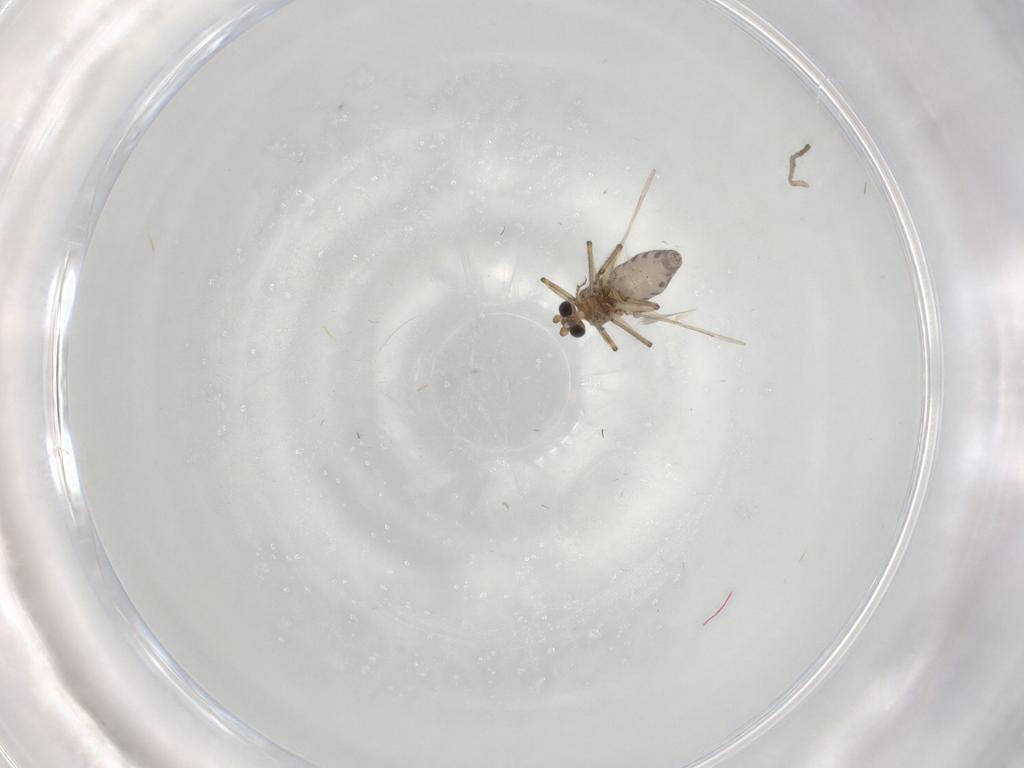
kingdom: Animalia
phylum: Arthropoda
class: Insecta
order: Diptera
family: Ceratopogonidae
